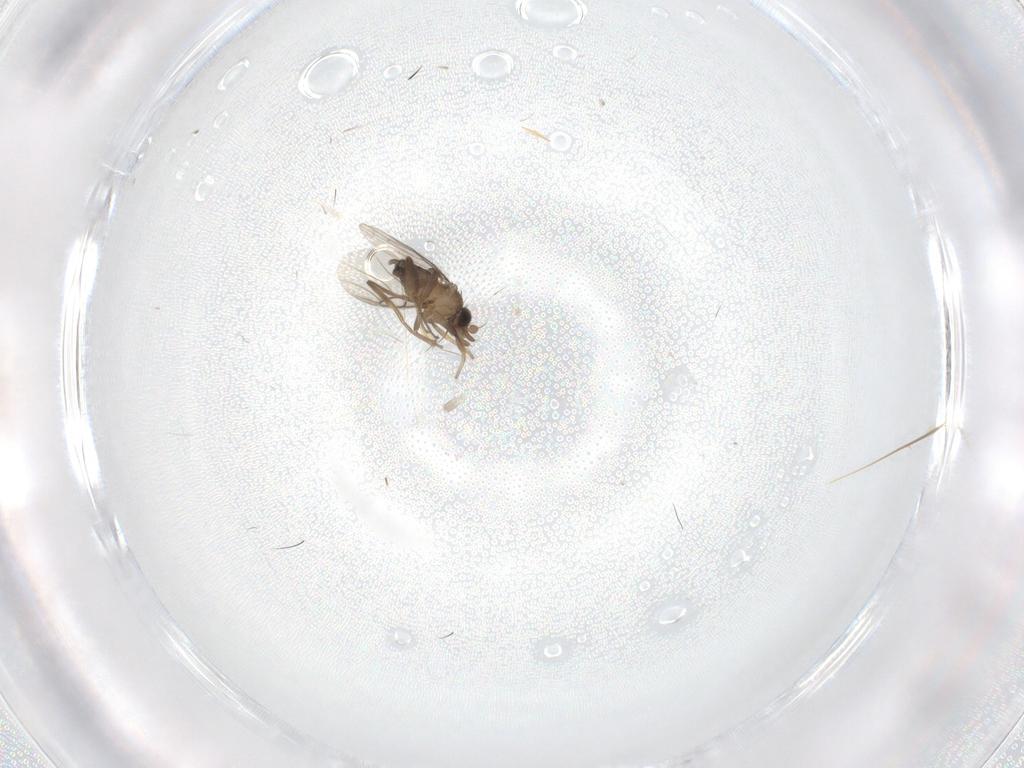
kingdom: Animalia
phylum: Arthropoda
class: Insecta
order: Diptera
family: Phoridae
